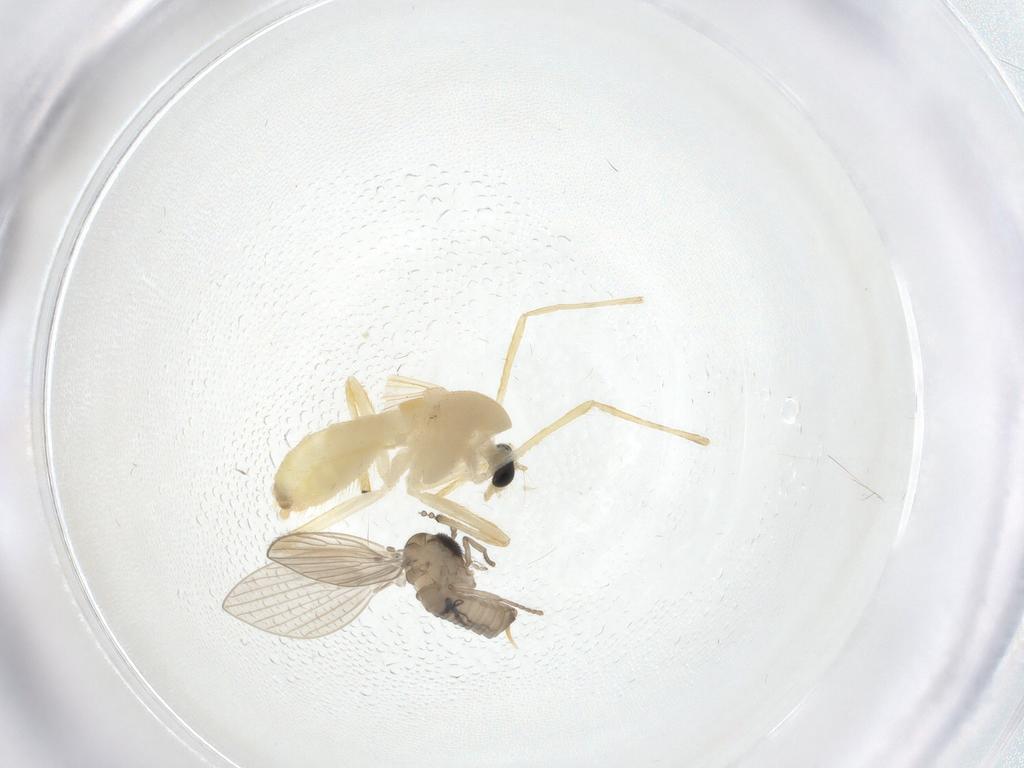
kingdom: Animalia
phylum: Arthropoda
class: Insecta
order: Diptera
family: Chironomidae
